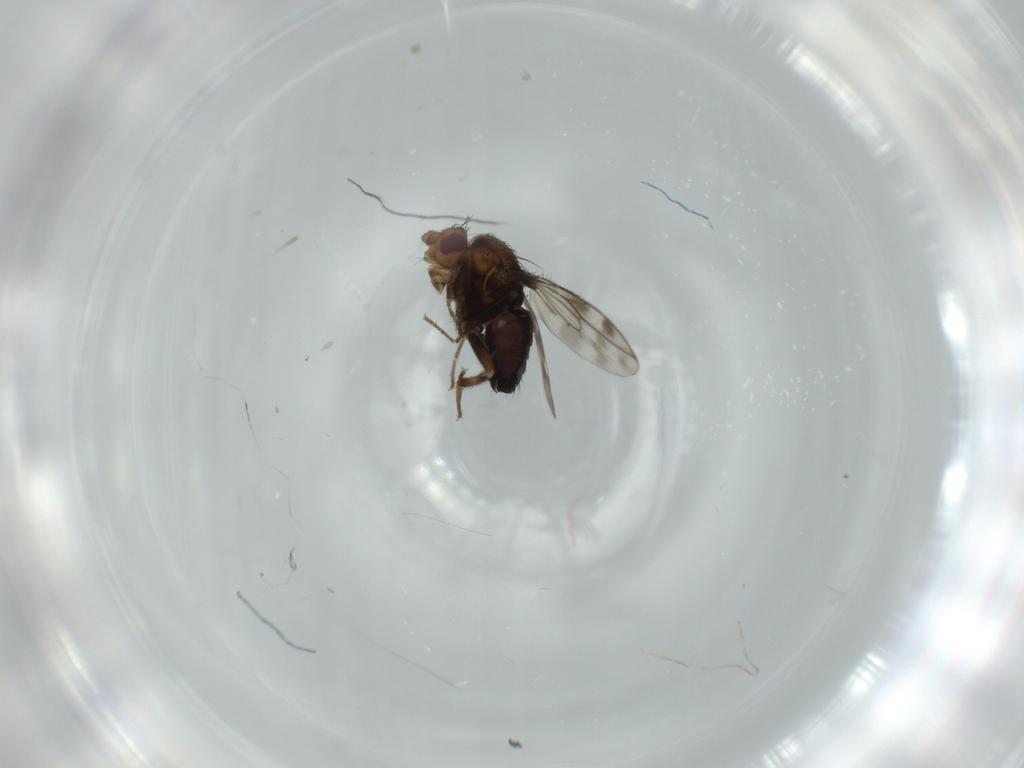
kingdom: Animalia
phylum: Arthropoda
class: Insecta
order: Diptera
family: Sphaeroceridae
